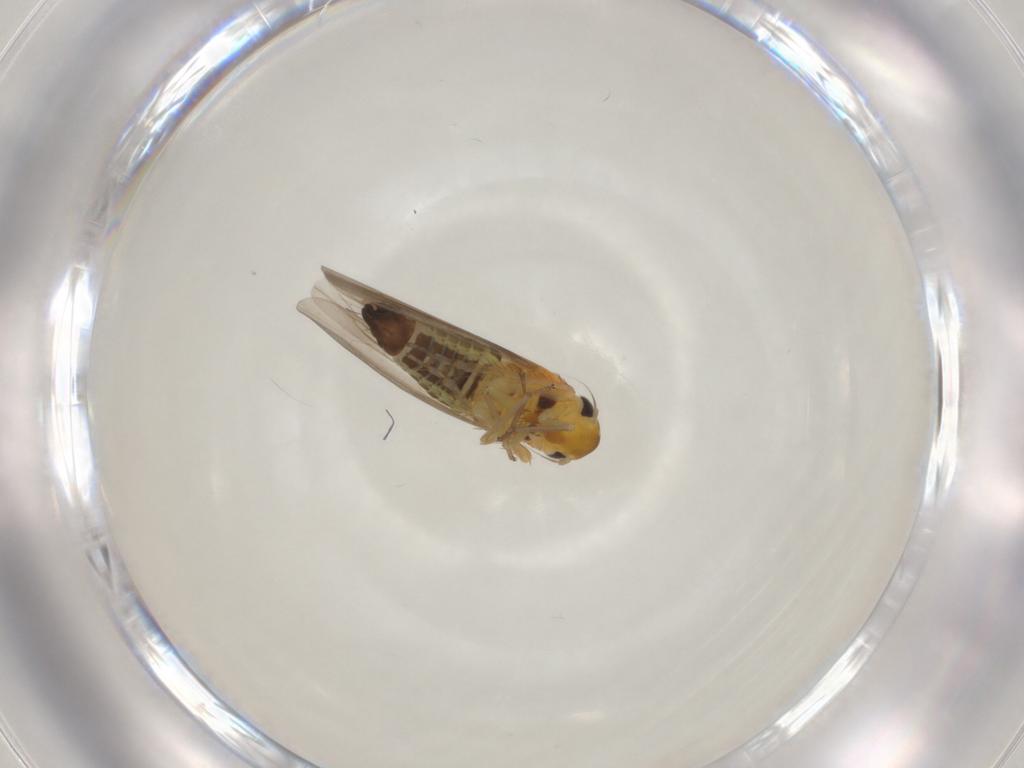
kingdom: Animalia
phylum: Arthropoda
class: Insecta
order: Hemiptera
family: Cicadellidae
